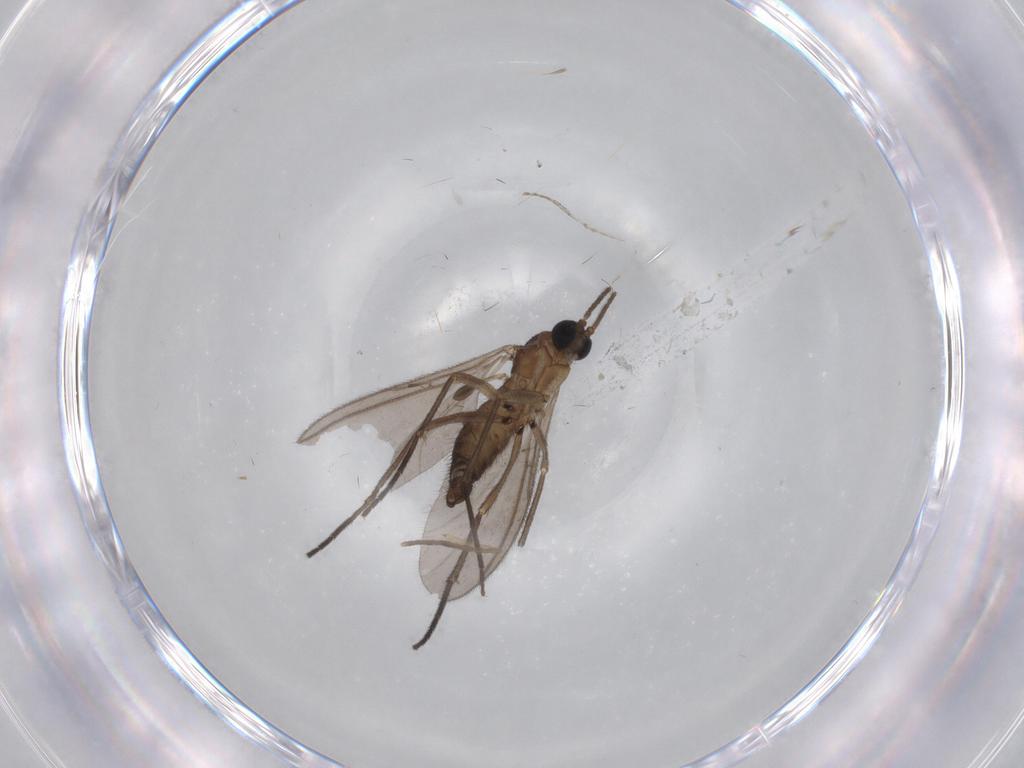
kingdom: Animalia
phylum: Arthropoda
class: Insecta
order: Diptera
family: Cecidomyiidae
